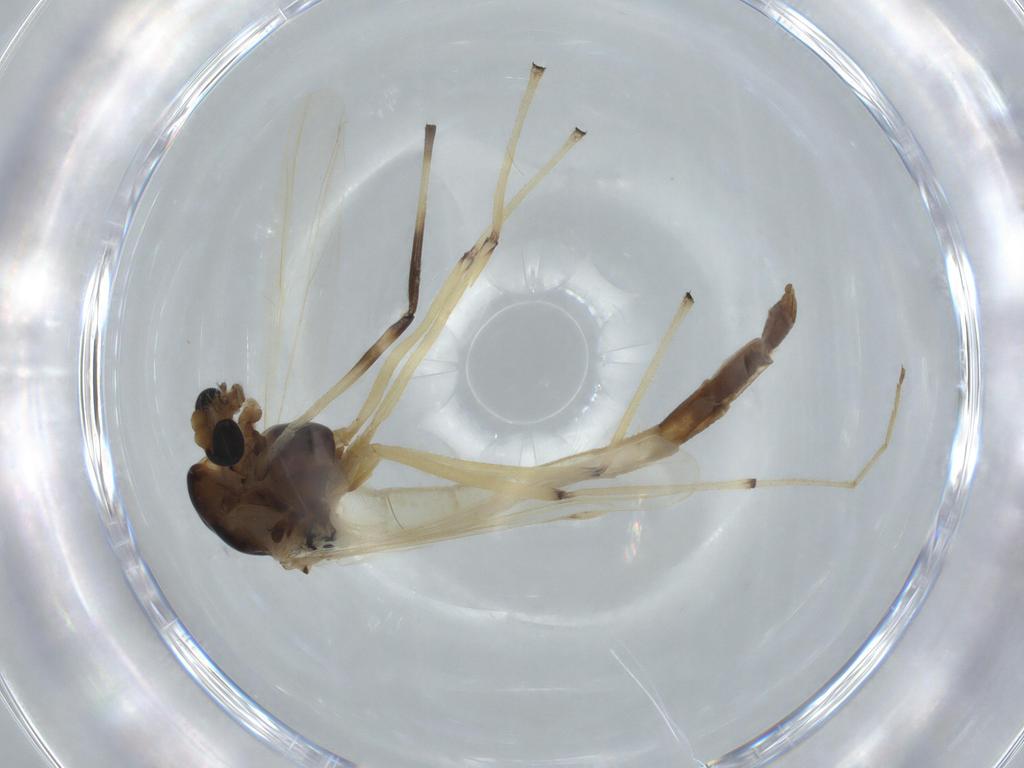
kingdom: Animalia
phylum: Arthropoda
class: Insecta
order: Diptera
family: Chironomidae
